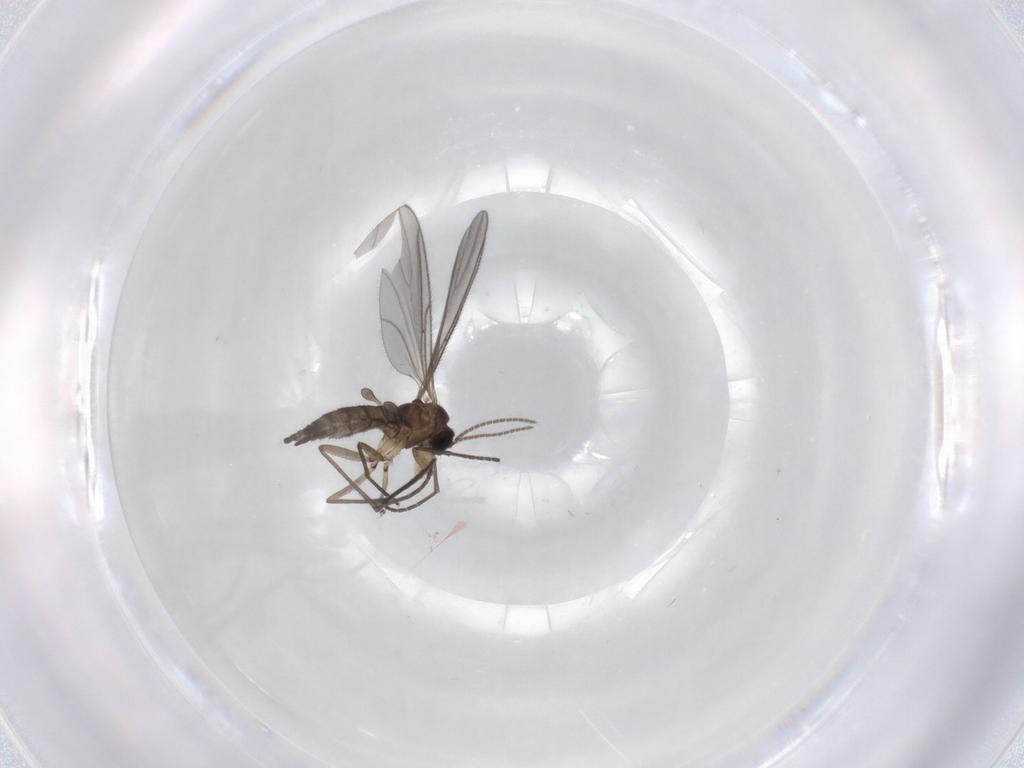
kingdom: Animalia
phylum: Arthropoda
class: Insecta
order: Diptera
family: Sciaridae
